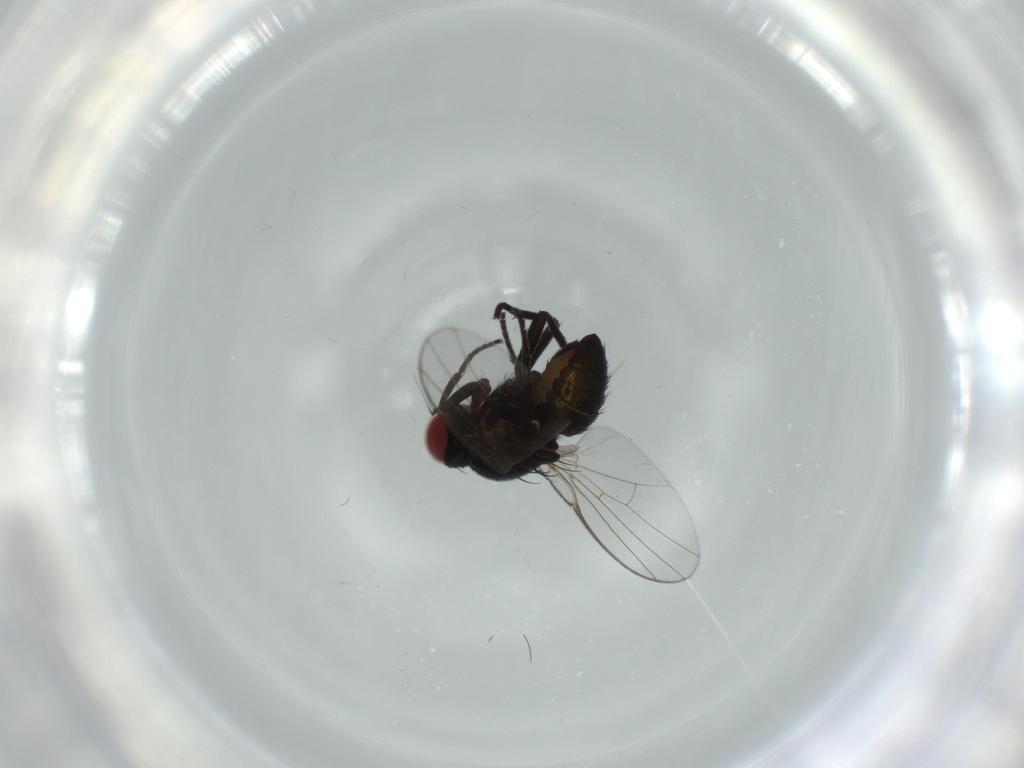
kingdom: Animalia
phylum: Arthropoda
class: Insecta
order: Diptera
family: Agromyzidae
